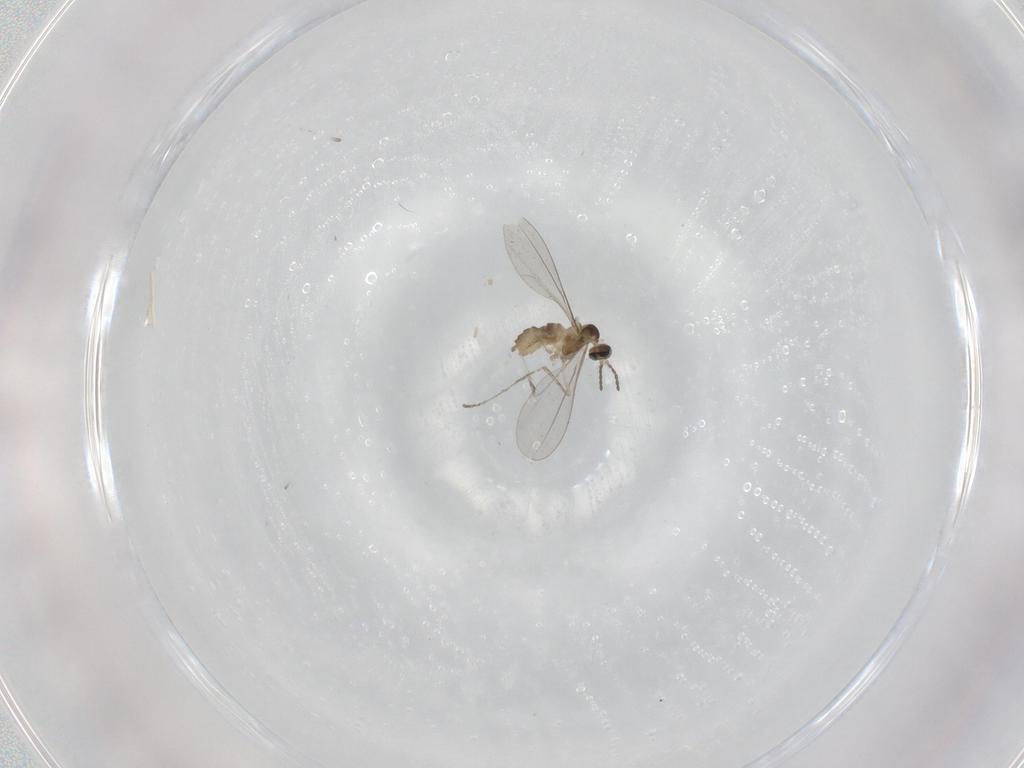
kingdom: Animalia
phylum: Arthropoda
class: Insecta
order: Diptera
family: Cecidomyiidae
